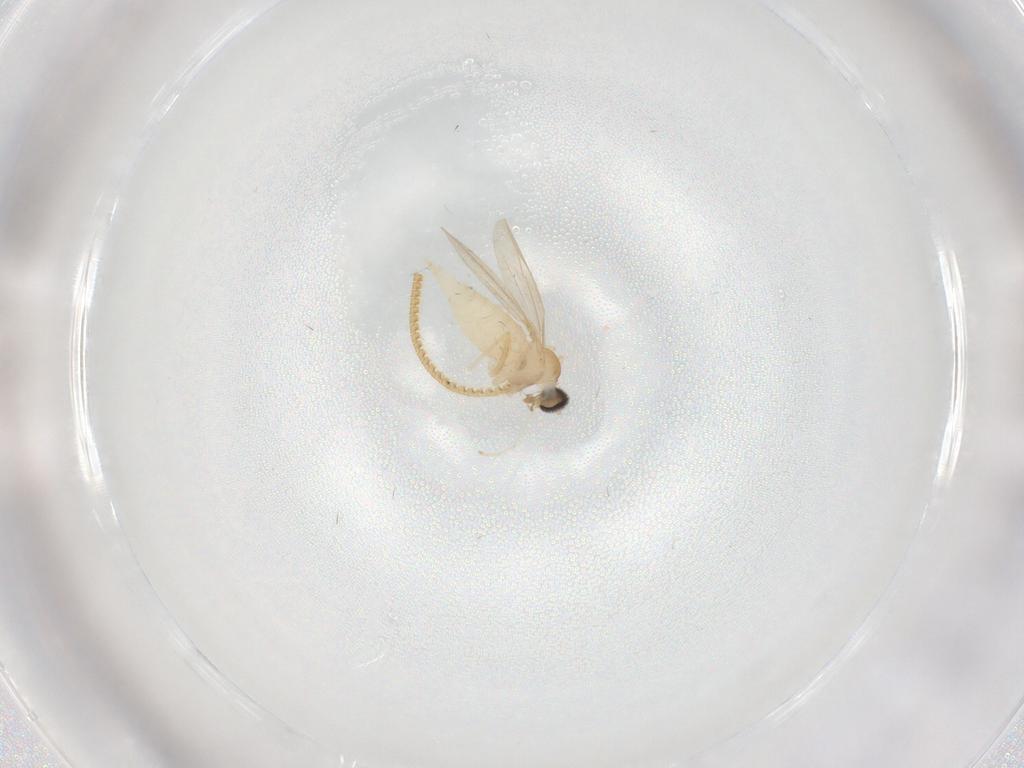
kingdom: Animalia
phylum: Arthropoda
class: Insecta
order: Diptera
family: Cecidomyiidae
